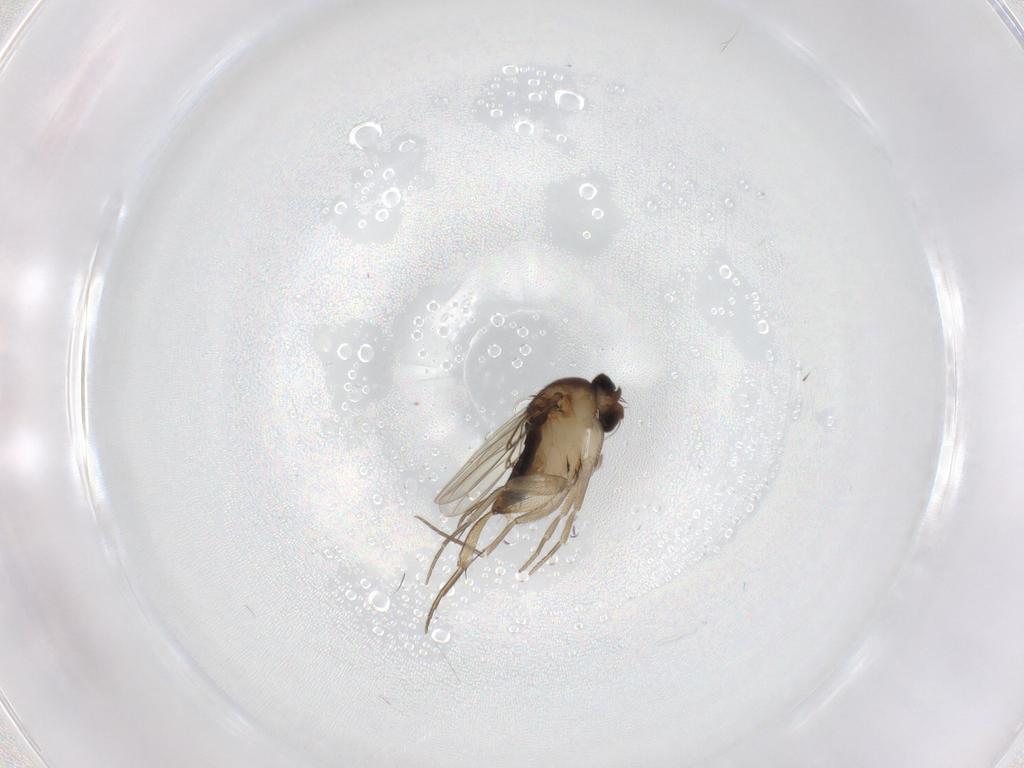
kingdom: Animalia
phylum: Arthropoda
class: Insecta
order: Diptera
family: Phoridae
